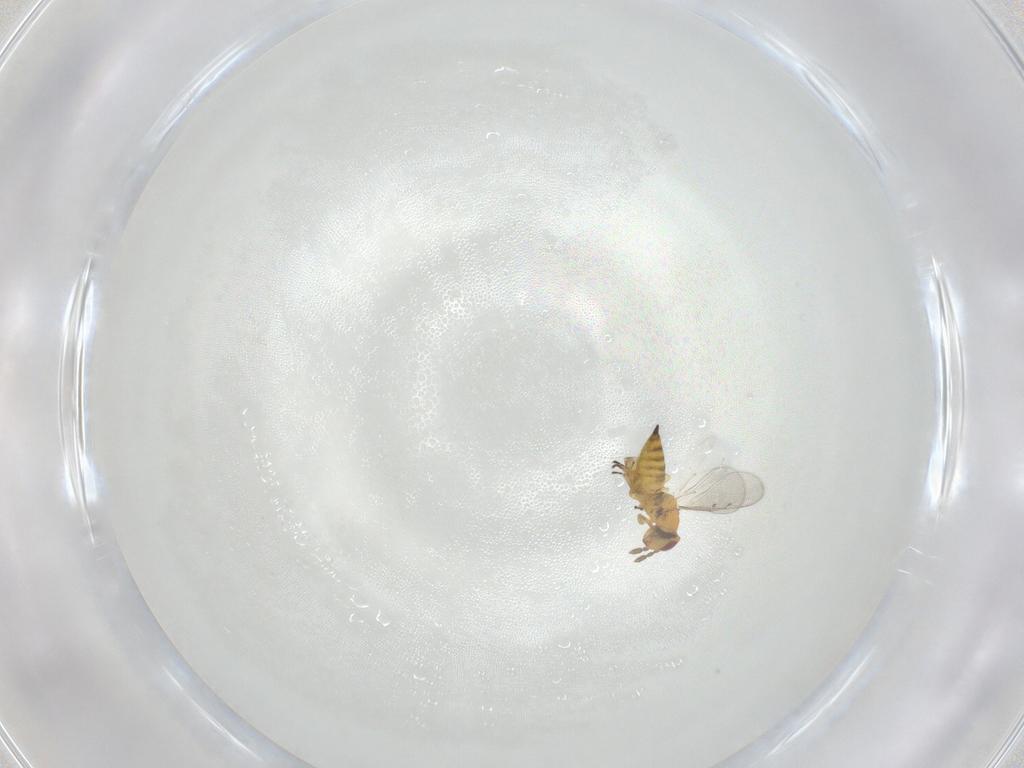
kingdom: Animalia
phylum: Arthropoda
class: Insecta
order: Hymenoptera
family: Eulophidae
